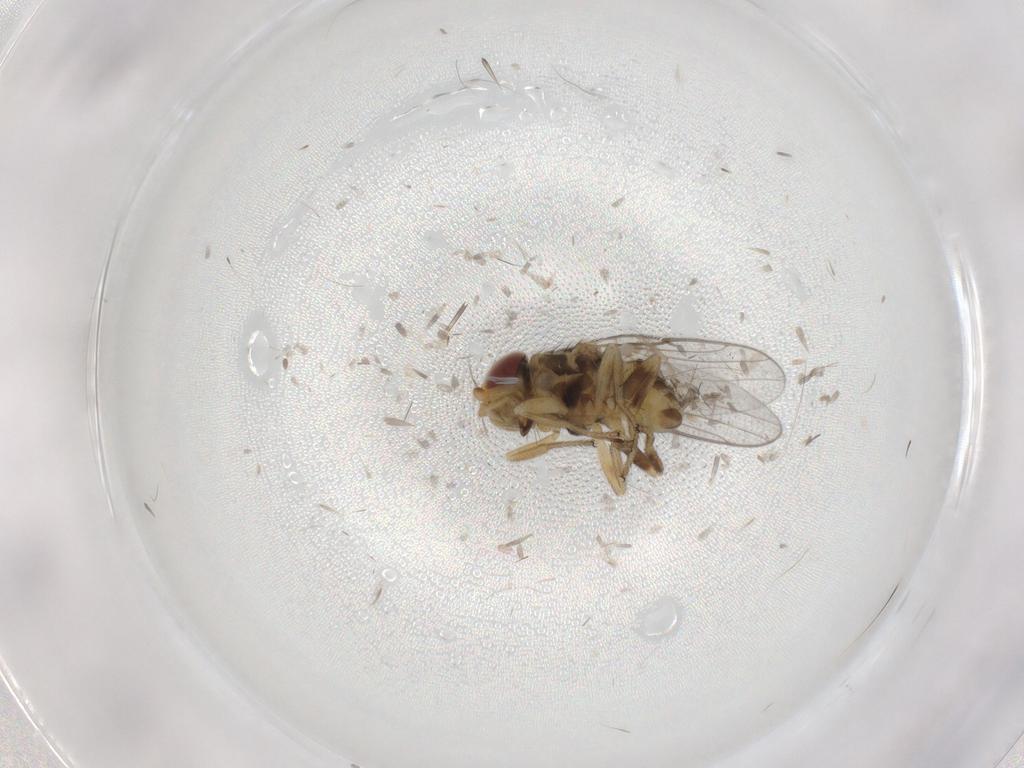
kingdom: Animalia
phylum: Arthropoda
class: Insecta
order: Diptera
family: Chloropidae
